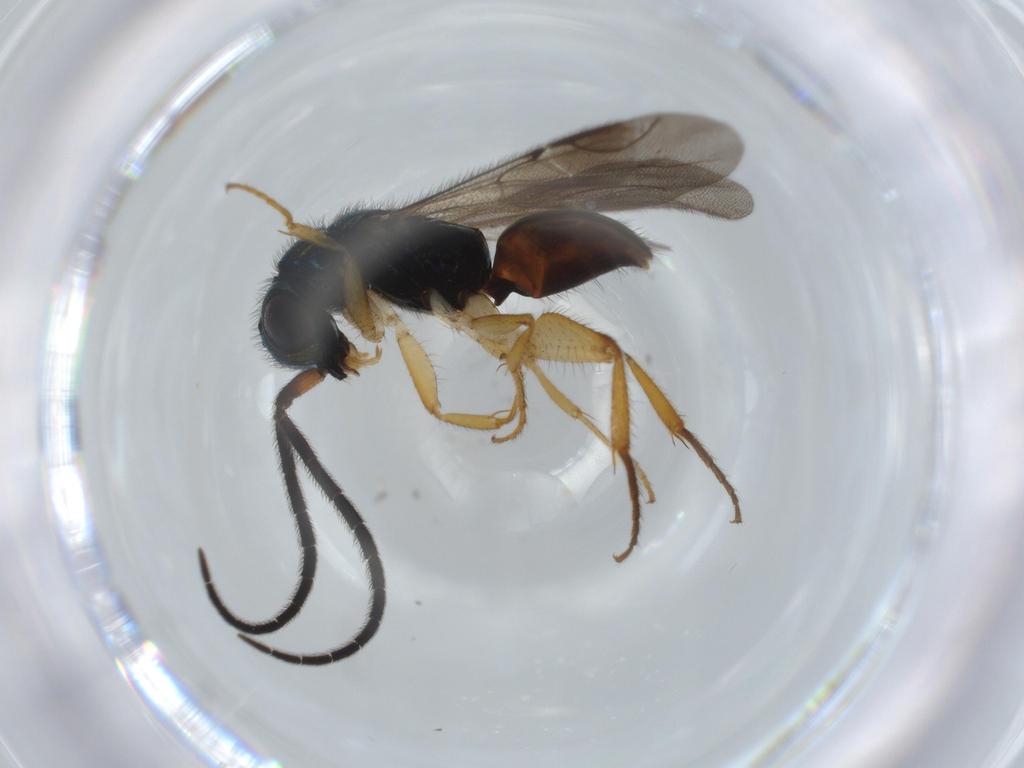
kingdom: Animalia
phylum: Arthropoda
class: Insecta
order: Hymenoptera
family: Chrysididae
